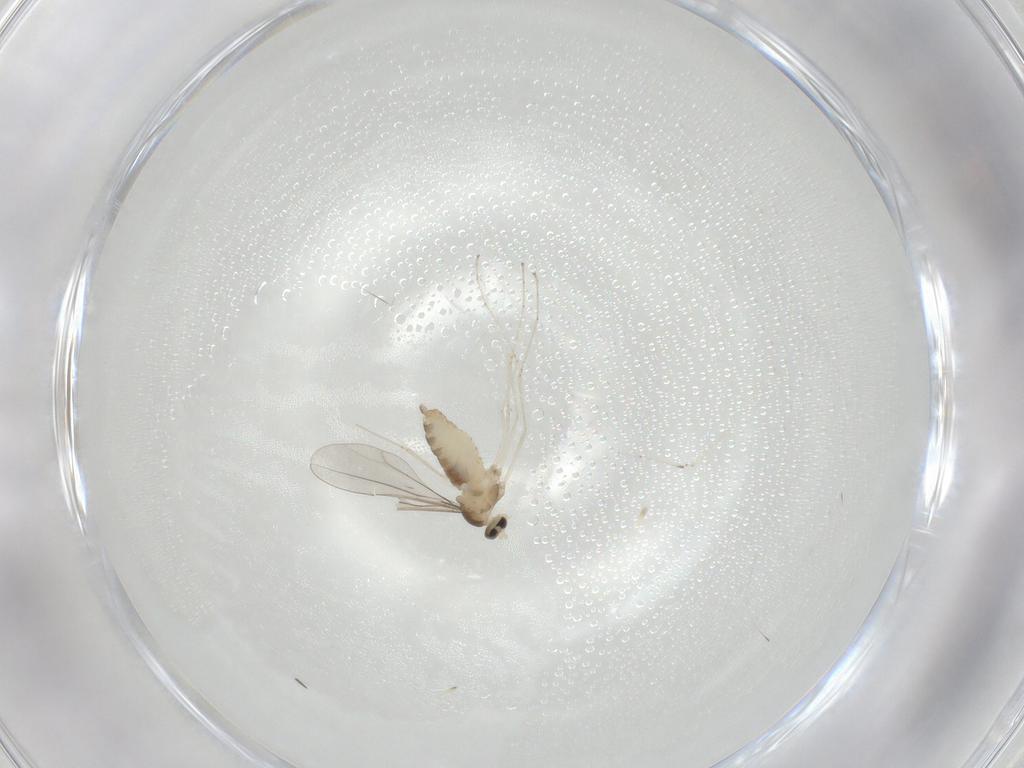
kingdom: Animalia
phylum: Arthropoda
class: Insecta
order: Diptera
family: Cecidomyiidae
